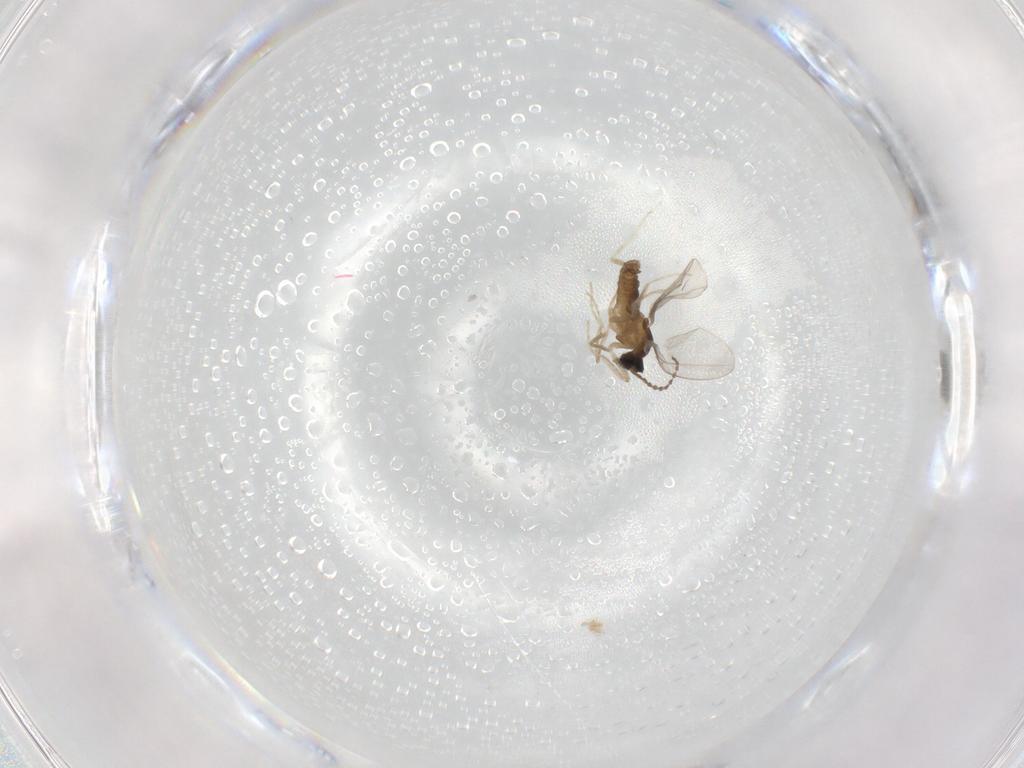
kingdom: Animalia
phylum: Arthropoda
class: Insecta
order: Diptera
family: Cecidomyiidae
